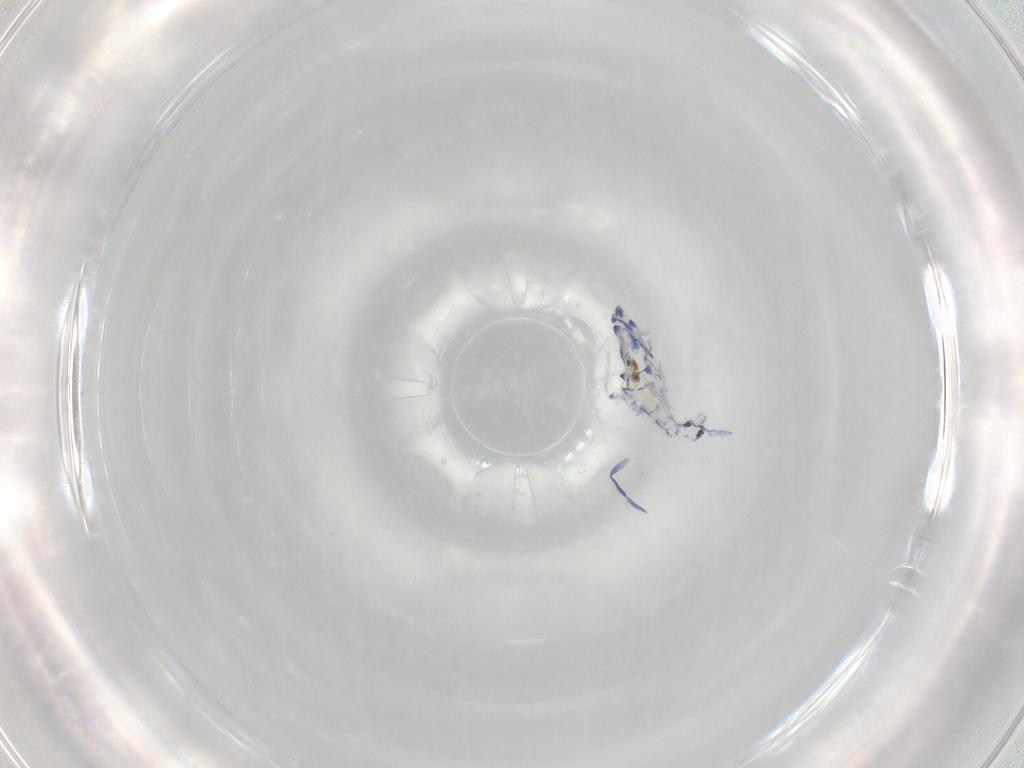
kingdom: Animalia
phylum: Arthropoda
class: Collembola
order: Entomobryomorpha
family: Entomobryidae
